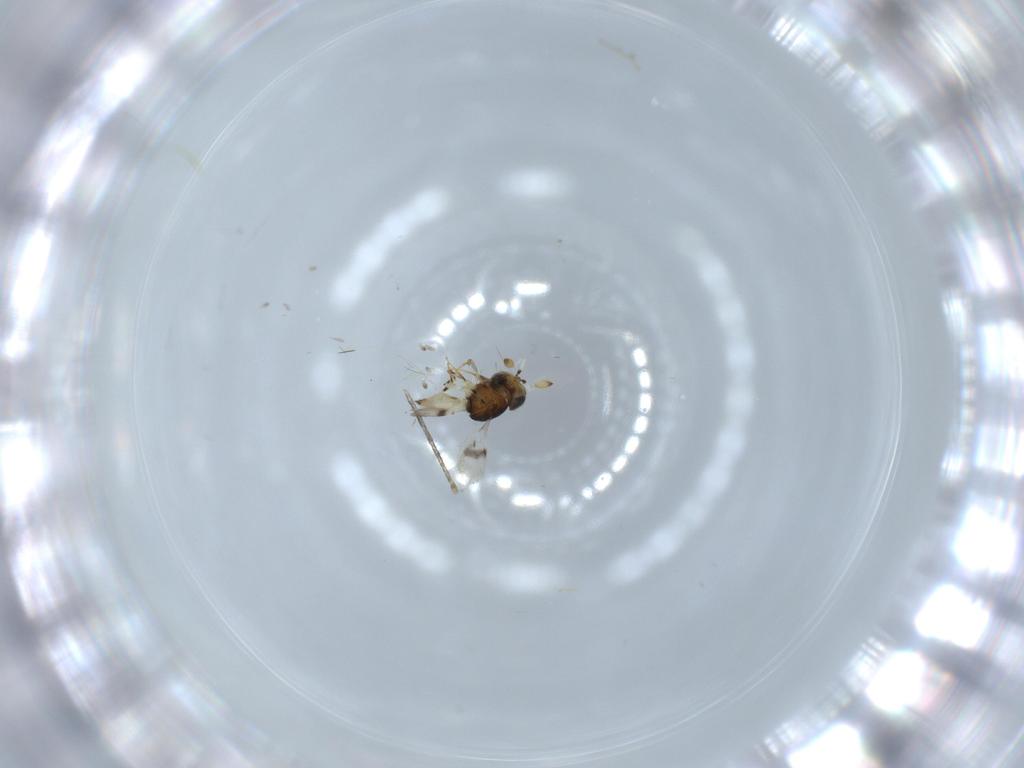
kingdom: Animalia
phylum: Arthropoda
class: Insecta
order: Hymenoptera
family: Scelionidae
